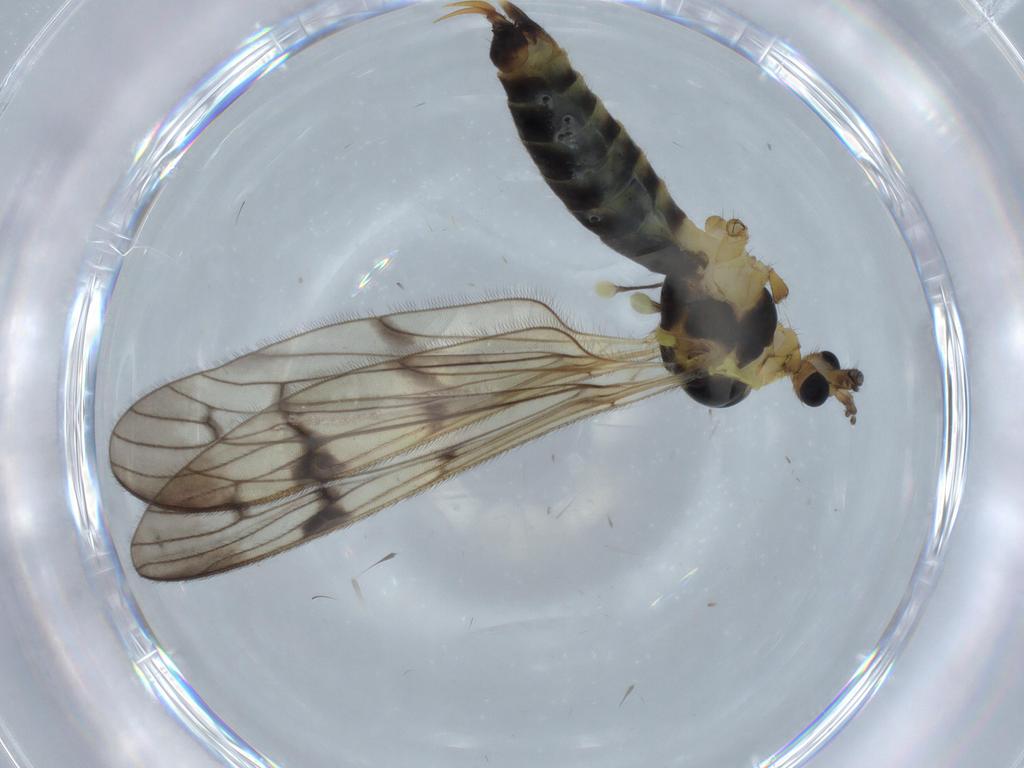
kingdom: Animalia
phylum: Arthropoda
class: Insecta
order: Diptera
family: Limoniidae
